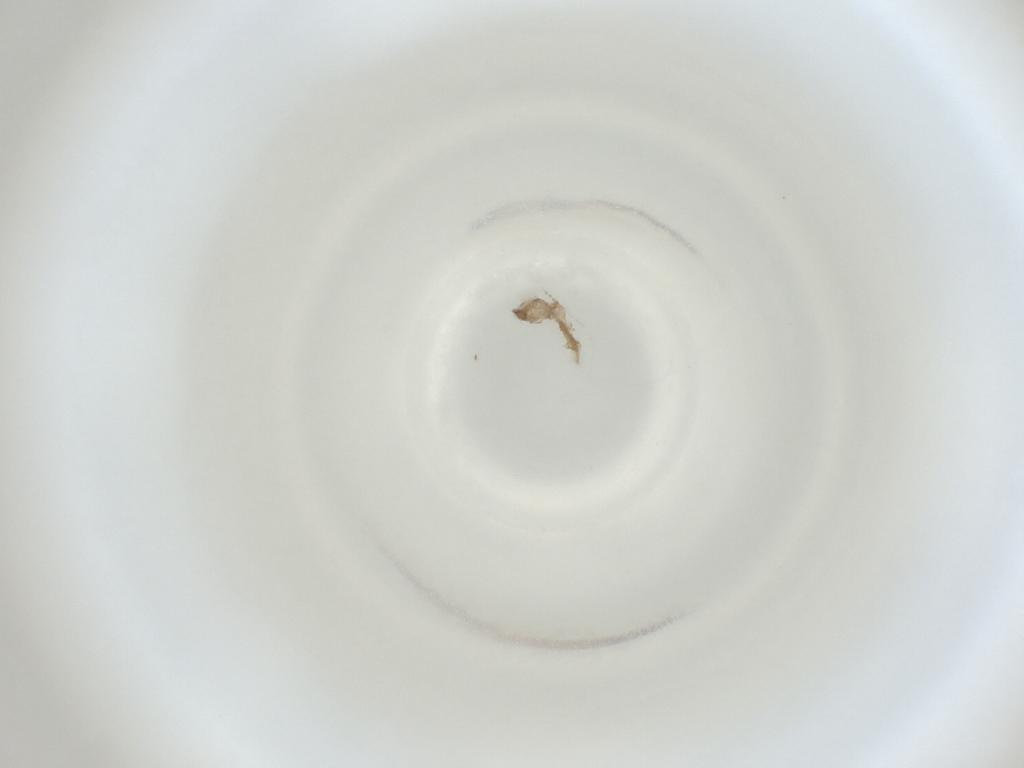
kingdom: Animalia
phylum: Arthropoda
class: Insecta
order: Diptera
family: Cecidomyiidae
